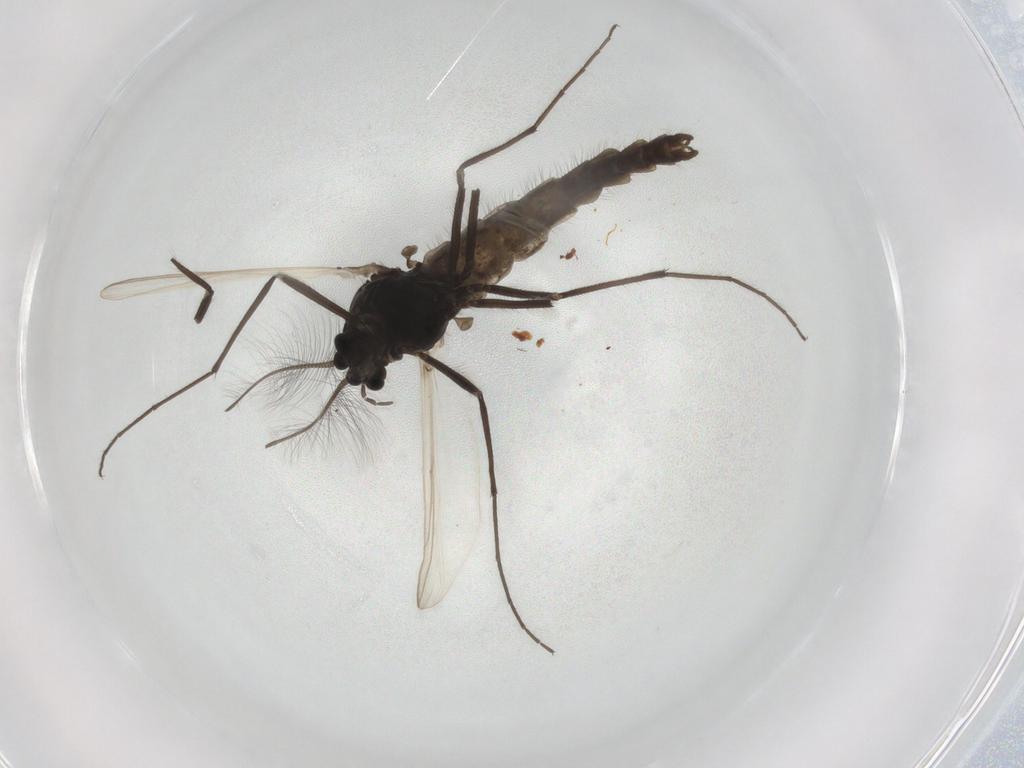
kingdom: Animalia
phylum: Arthropoda
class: Insecta
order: Diptera
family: Culicidae
